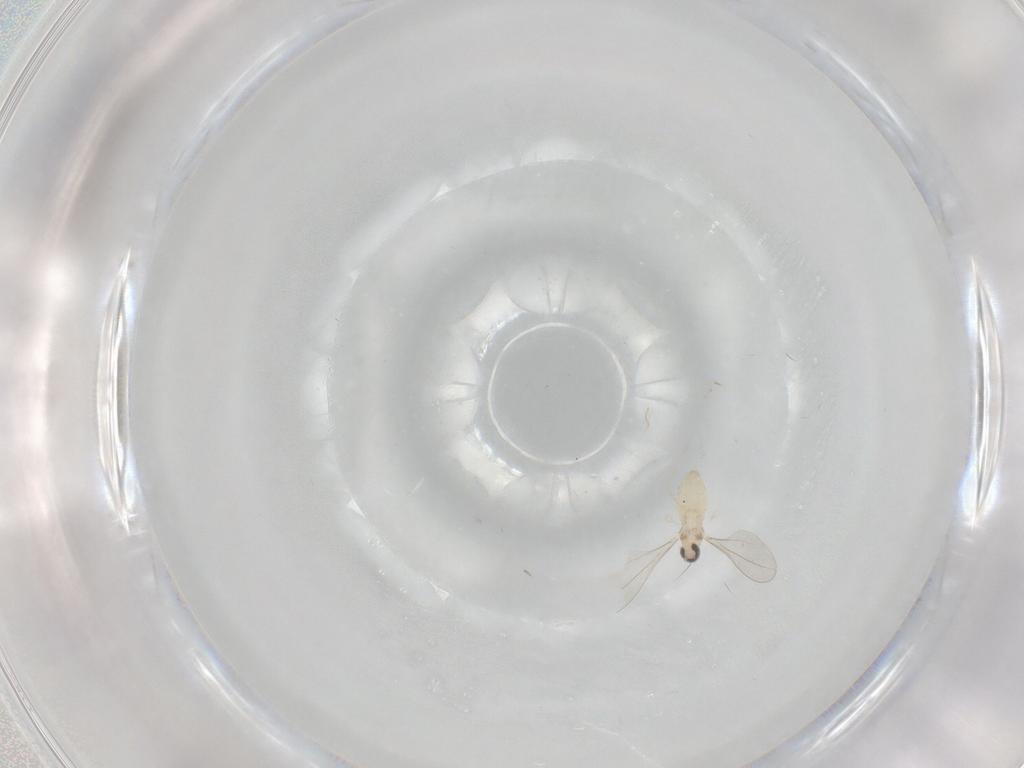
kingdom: Animalia
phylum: Arthropoda
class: Insecta
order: Diptera
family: Cecidomyiidae
